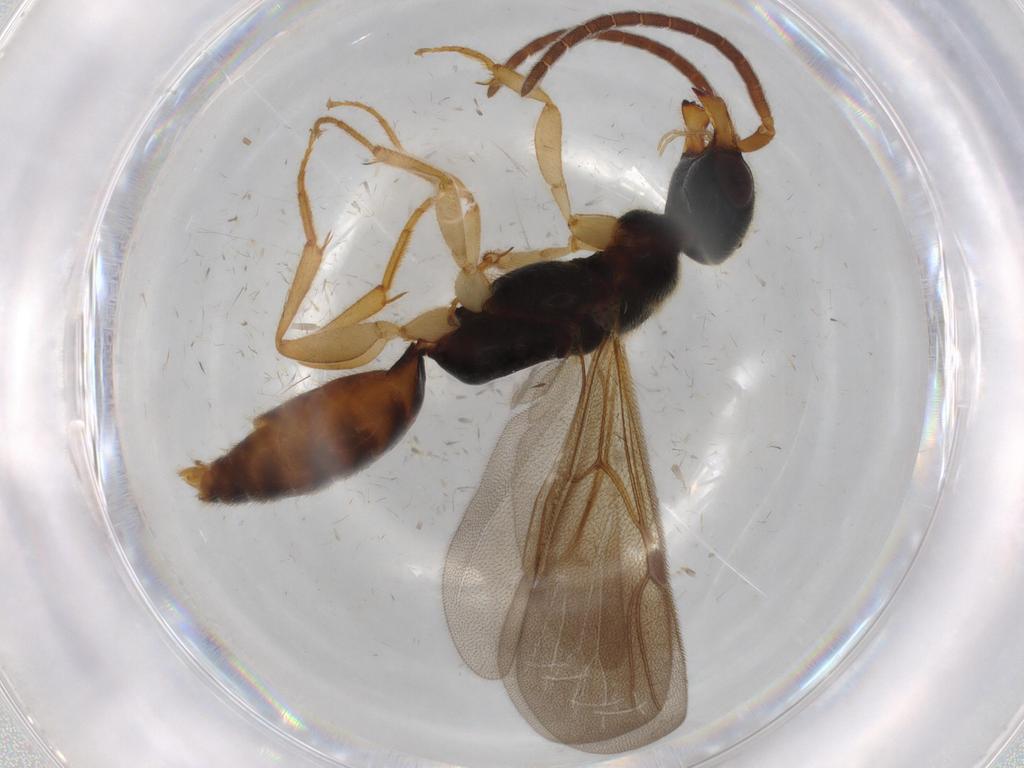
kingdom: Animalia
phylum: Arthropoda
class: Insecta
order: Hymenoptera
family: Bethylidae
